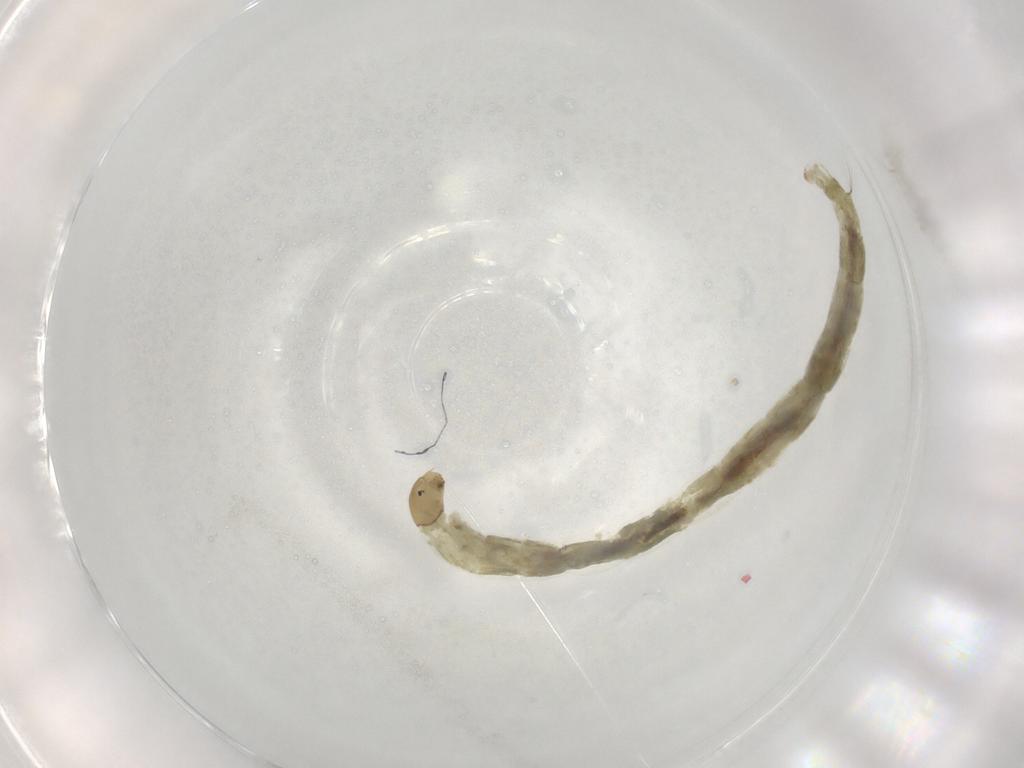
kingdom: Animalia
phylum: Arthropoda
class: Insecta
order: Diptera
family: Chironomidae
